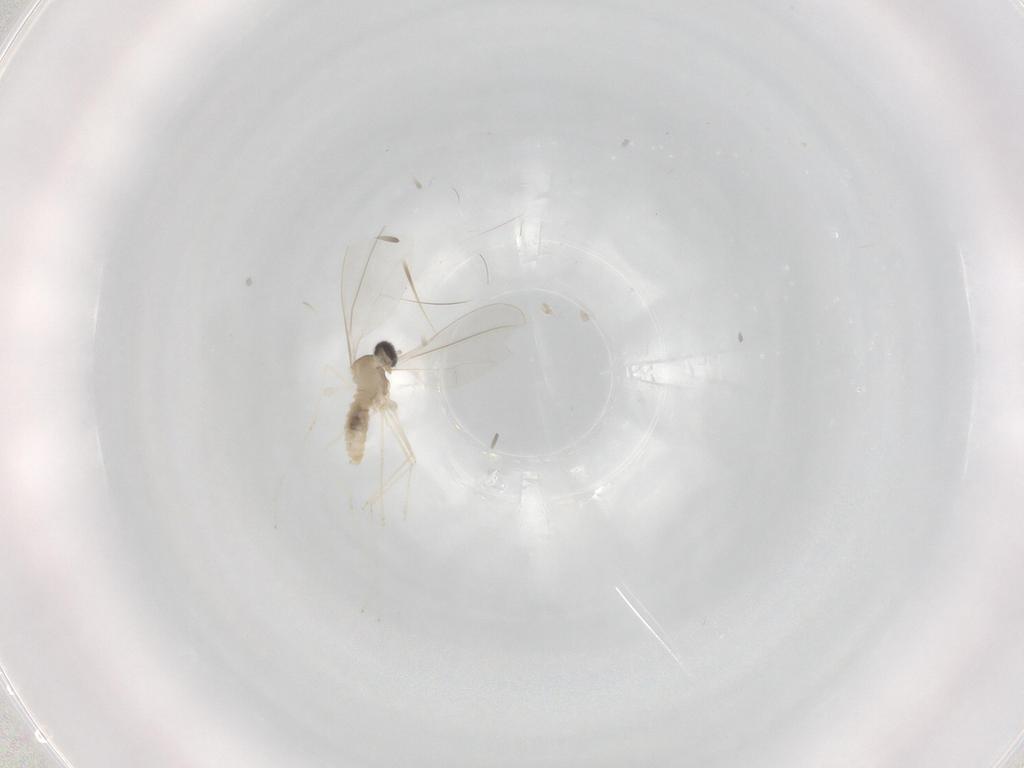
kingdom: Animalia
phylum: Arthropoda
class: Insecta
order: Diptera
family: Cecidomyiidae
